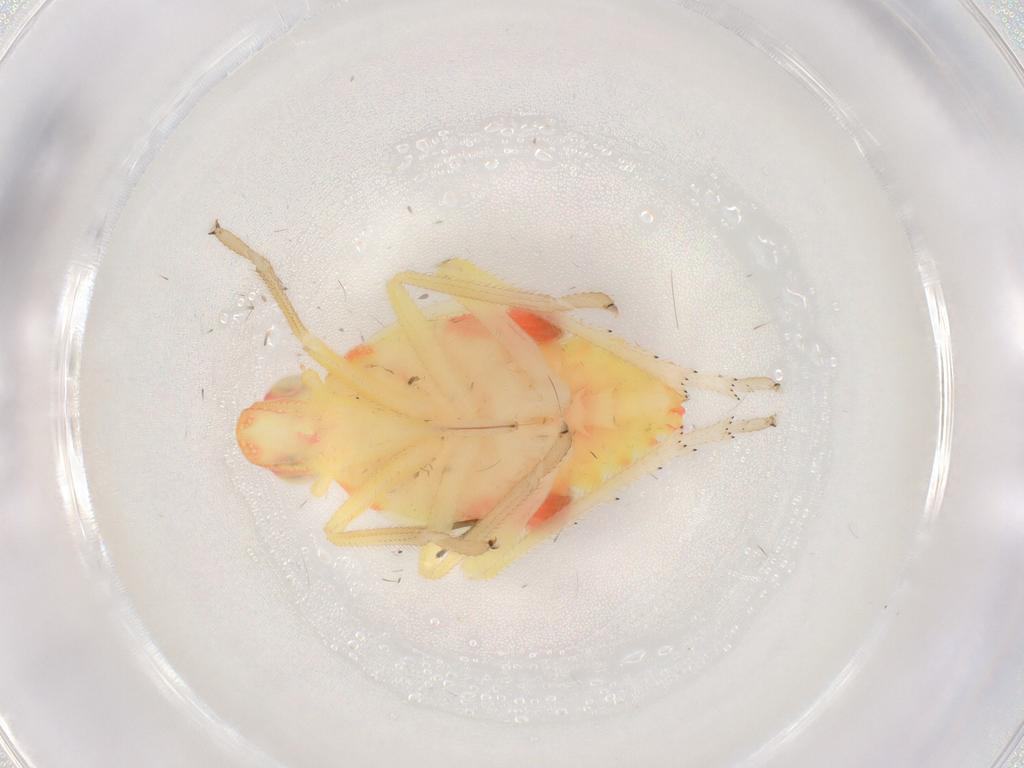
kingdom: Animalia
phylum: Arthropoda
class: Insecta
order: Hemiptera
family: Tropiduchidae
